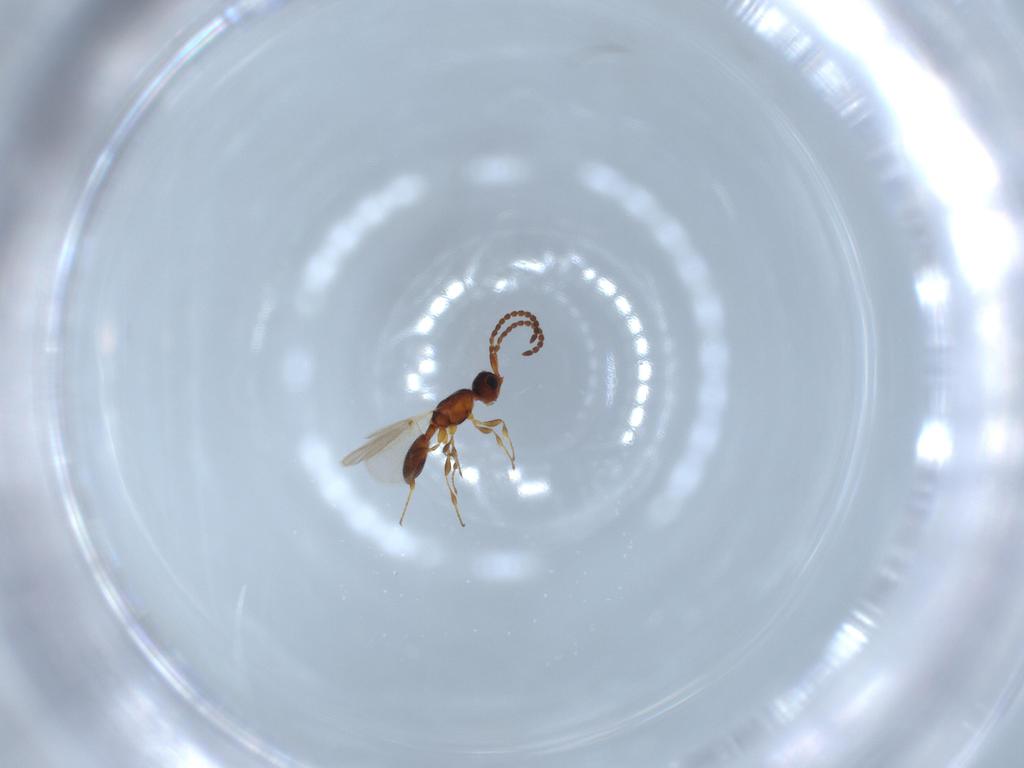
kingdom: Animalia
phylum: Arthropoda
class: Insecta
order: Hymenoptera
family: Diapriidae
